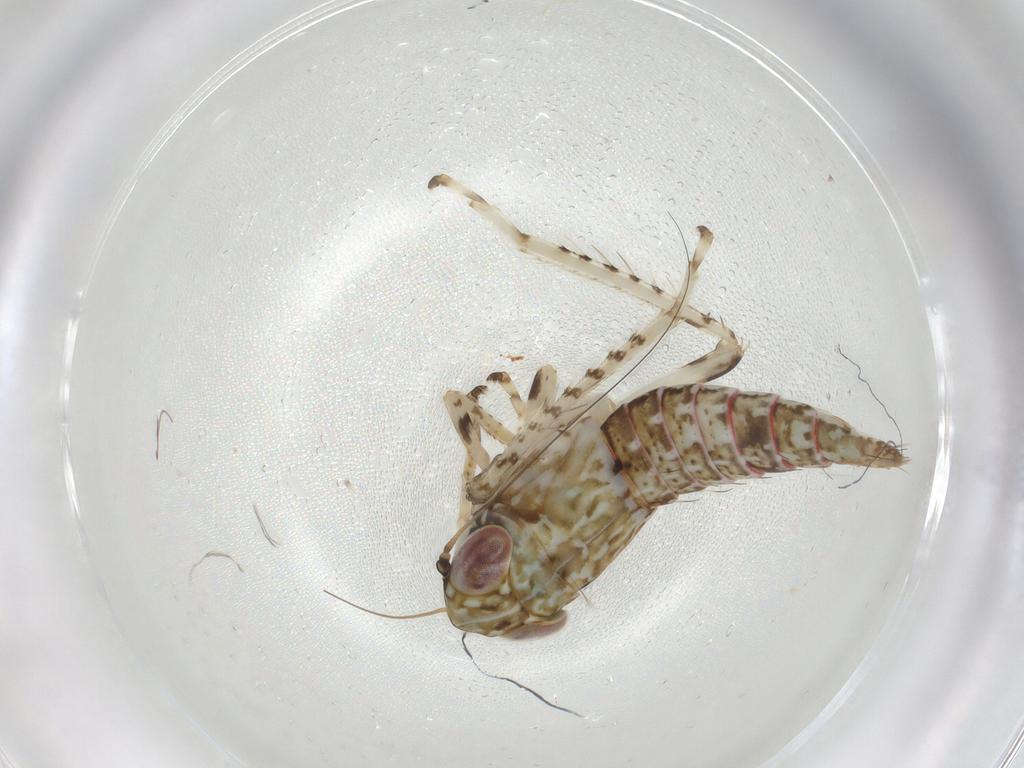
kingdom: Animalia
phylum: Arthropoda
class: Insecta
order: Hemiptera
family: Cicadellidae
